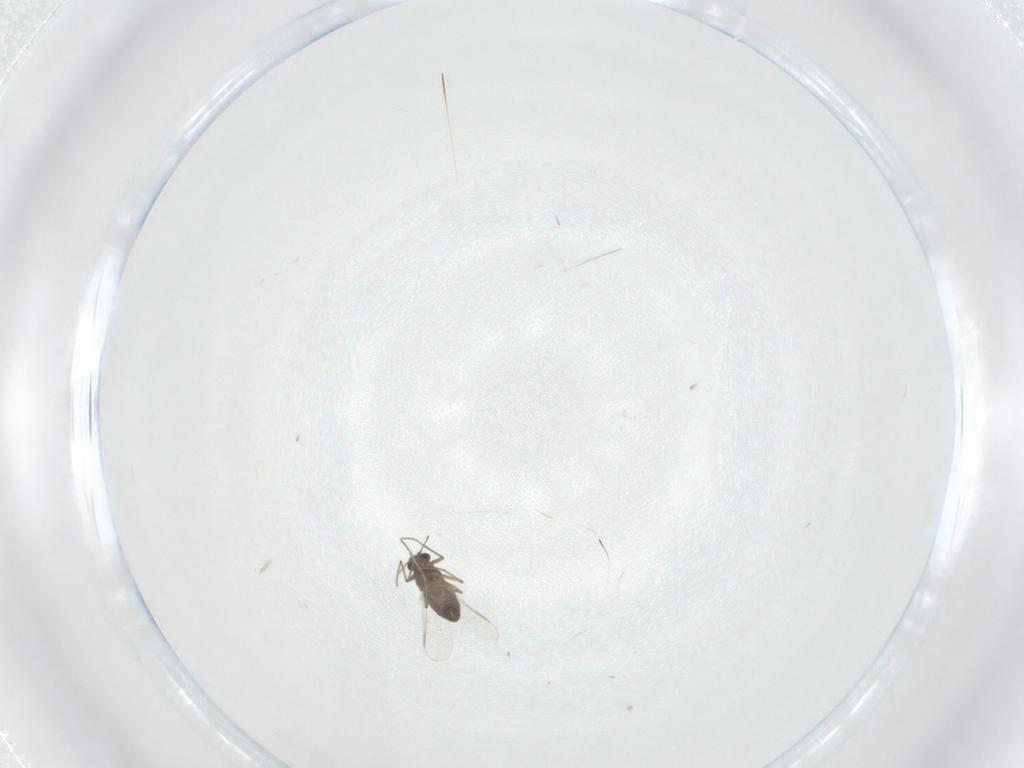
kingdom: Animalia
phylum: Arthropoda
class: Insecta
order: Diptera
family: Chironomidae
